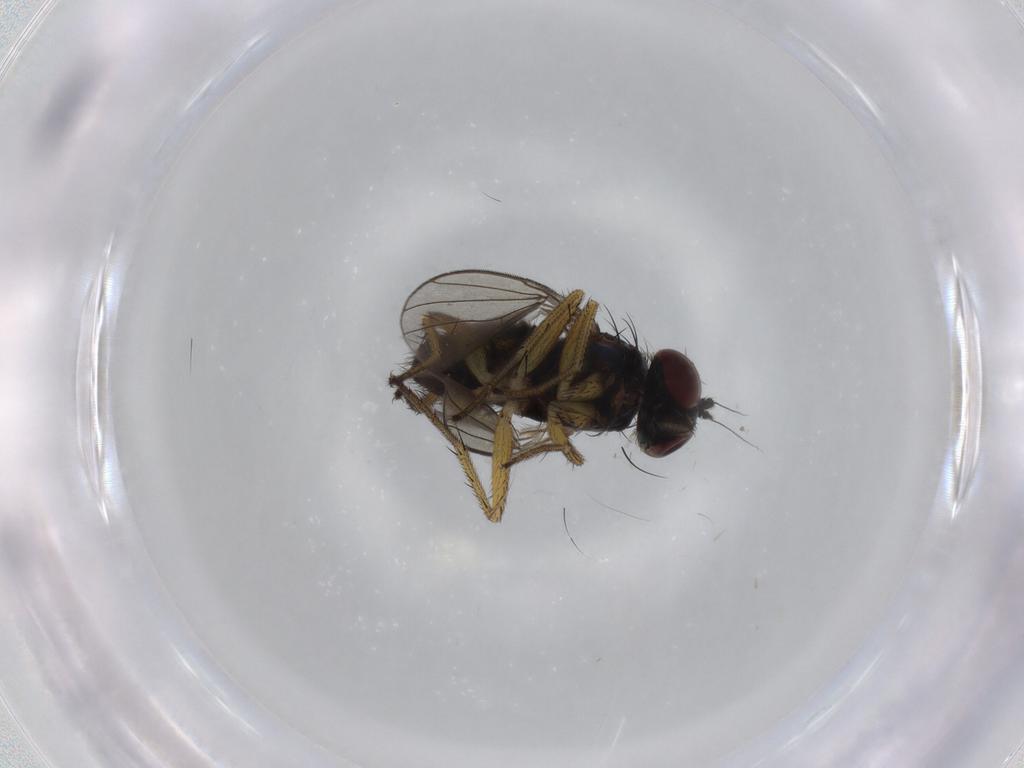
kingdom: Animalia
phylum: Arthropoda
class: Insecta
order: Diptera
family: Dolichopodidae
